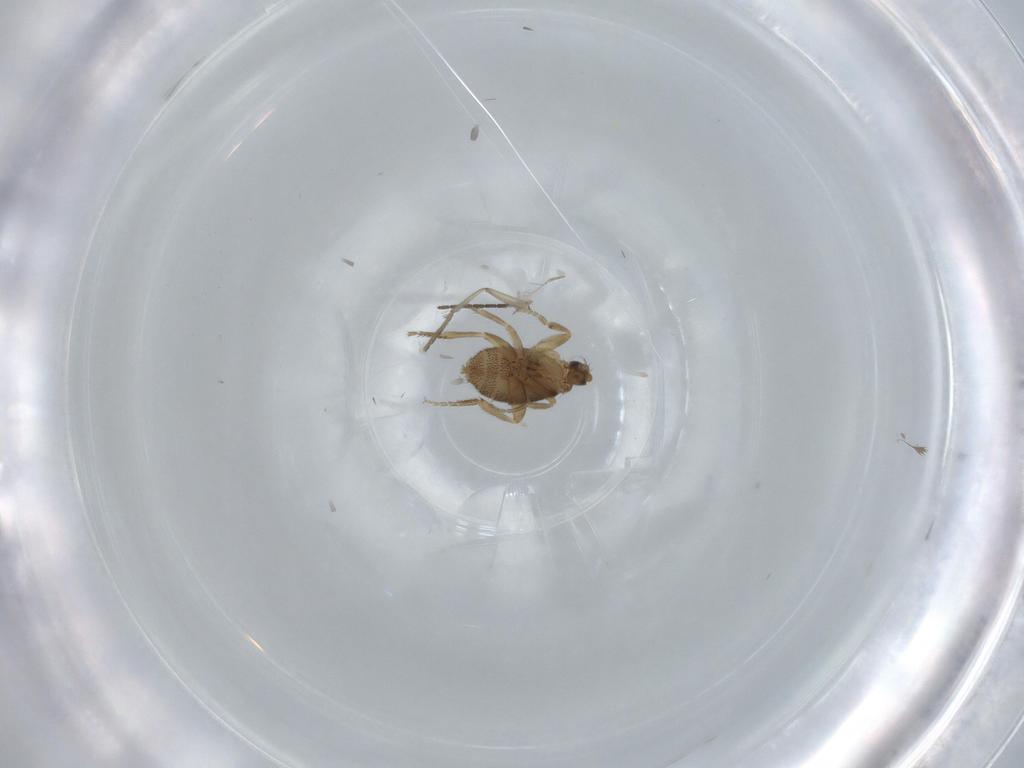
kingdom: Animalia
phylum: Arthropoda
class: Insecta
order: Diptera
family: Phoridae
